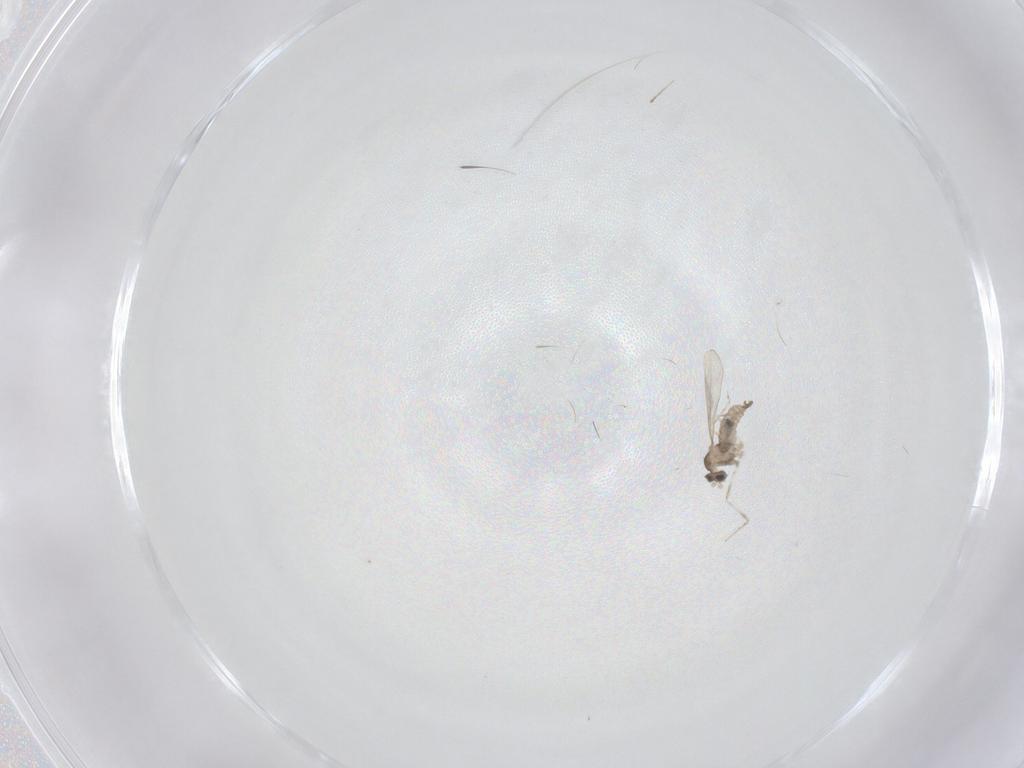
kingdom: Animalia
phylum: Arthropoda
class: Insecta
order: Diptera
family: Cecidomyiidae
